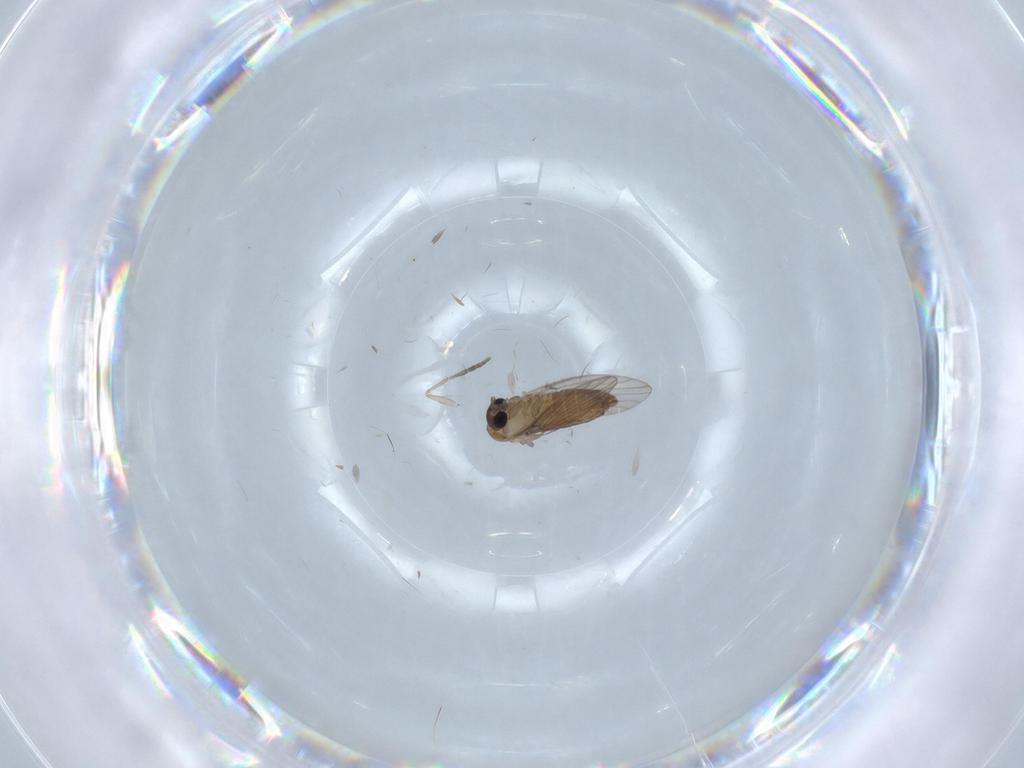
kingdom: Animalia
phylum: Arthropoda
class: Insecta
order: Diptera
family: Psychodidae
